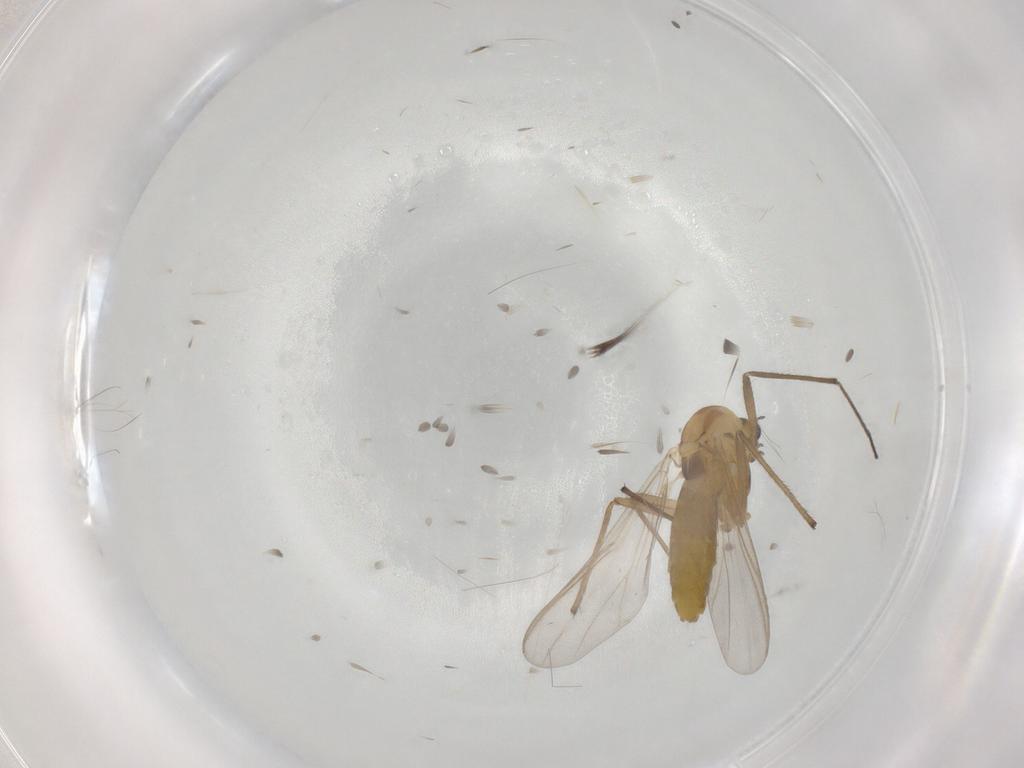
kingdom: Animalia
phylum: Arthropoda
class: Insecta
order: Diptera
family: Chironomidae
